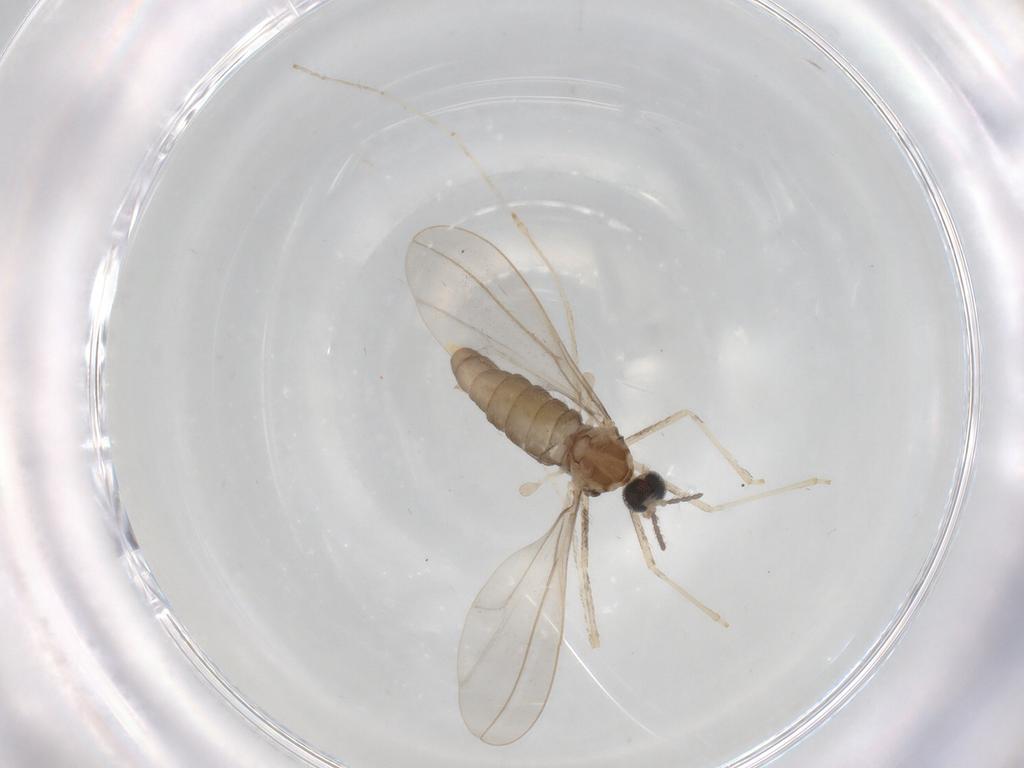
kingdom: Animalia
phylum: Arthropoda
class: Insecta
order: Diptera
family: Cecidomyiidae
